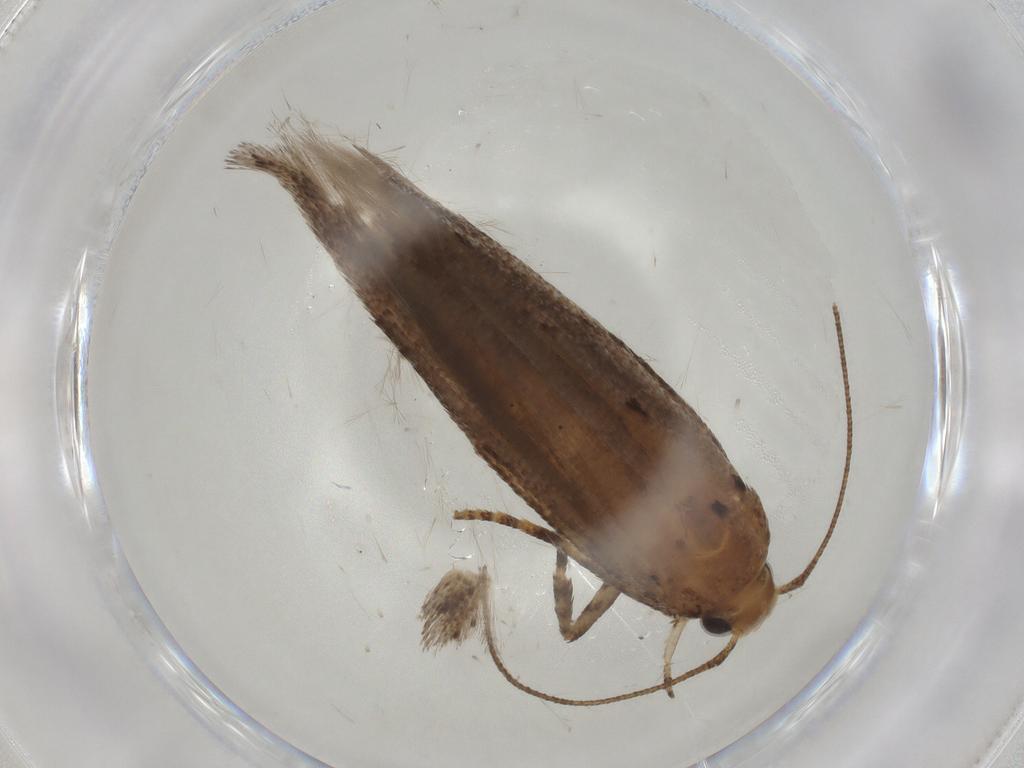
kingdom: Animalia
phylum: Arthropoda
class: Insecta
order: Lepidoptera
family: Gelechiidae
